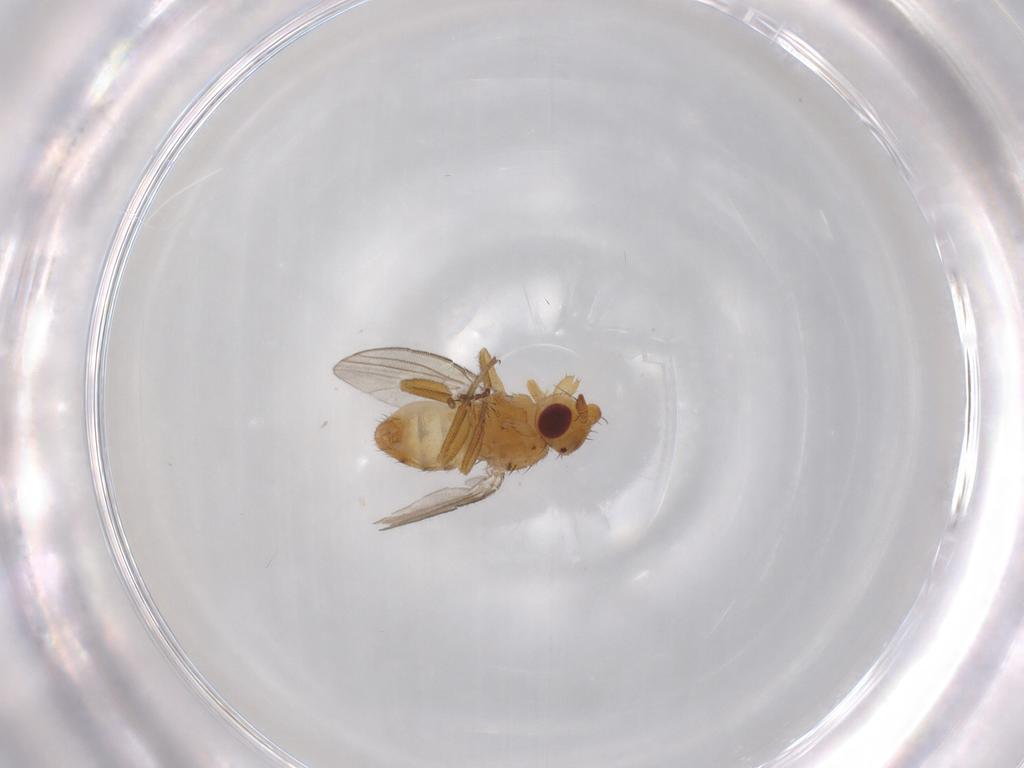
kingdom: Animalia
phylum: Arthropoda
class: Insecta
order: Diptera
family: Milichiidae
